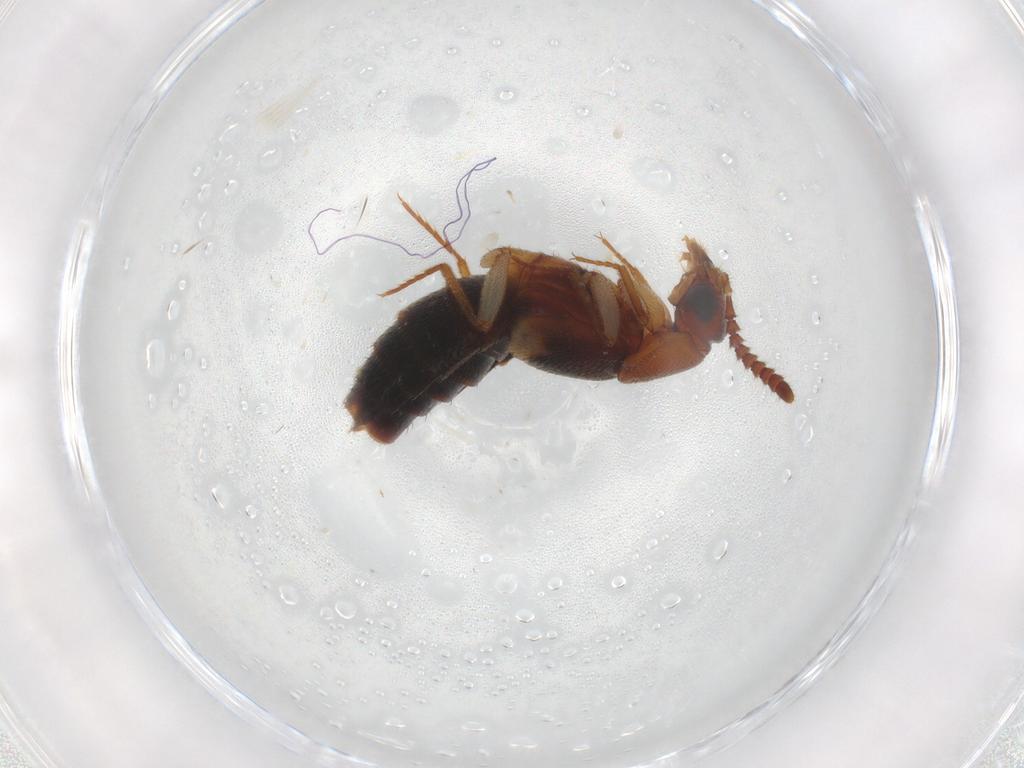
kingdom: Animalia
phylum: Arthropoda
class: Insecta
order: Coleoptera
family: Staphylinidae
